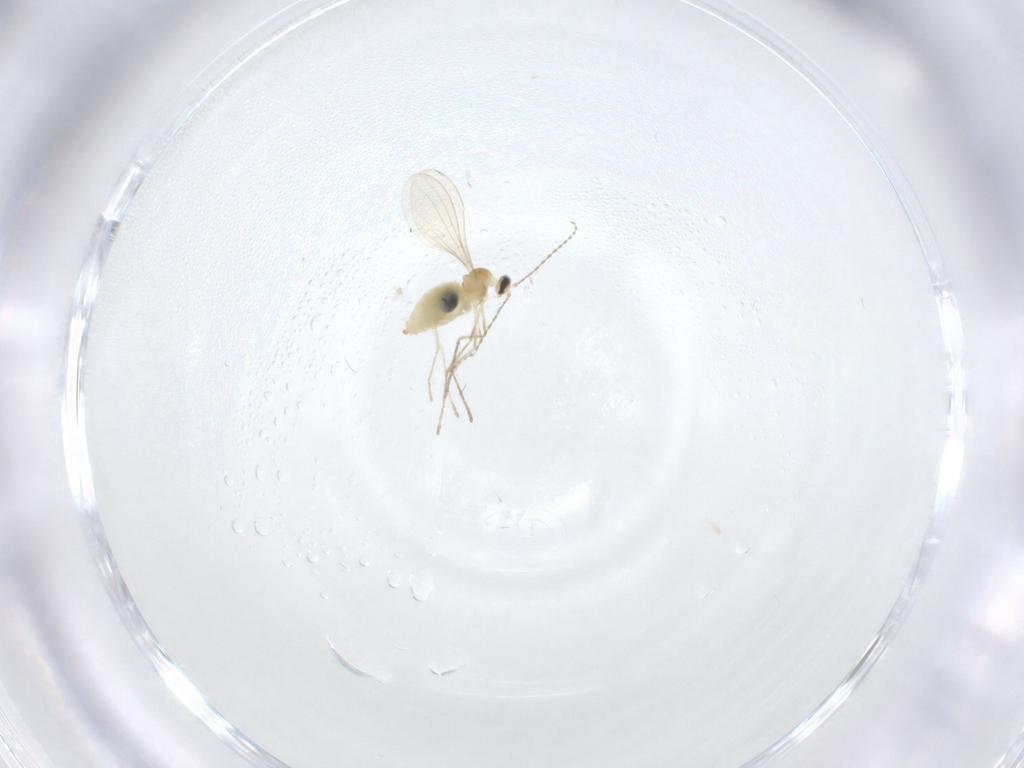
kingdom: Animalia
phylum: Arthropoda
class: Insecta
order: Diptera
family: Cecidomyiidae
